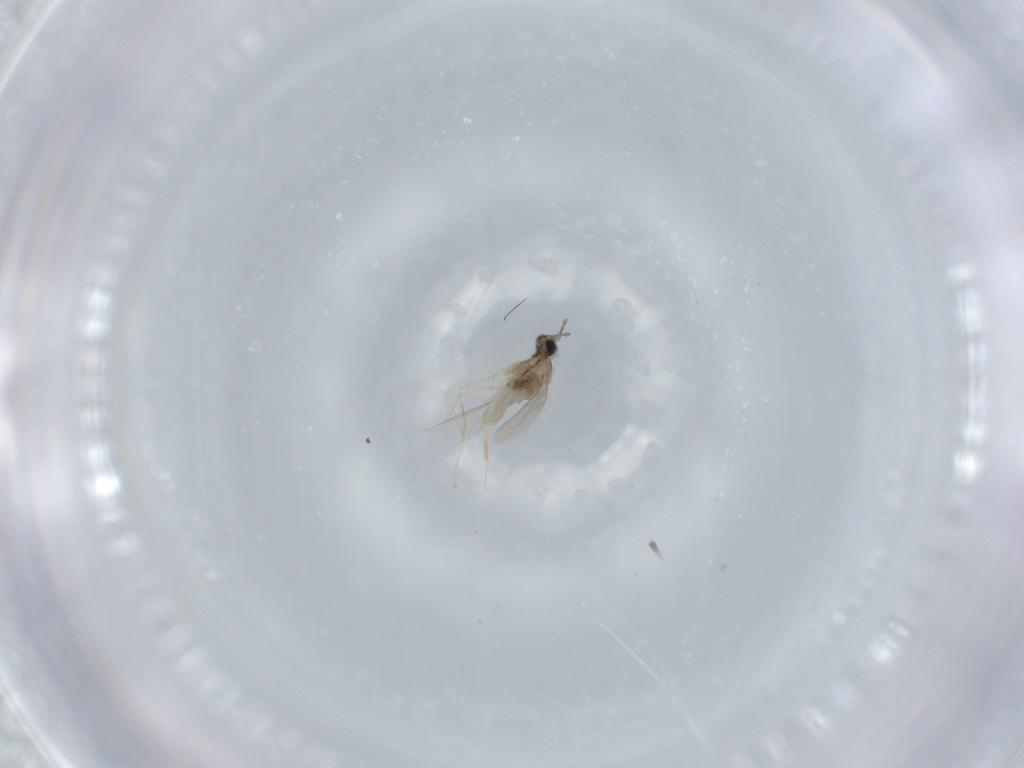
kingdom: Animalia
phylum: Arthropoda
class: Insecta
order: Diptera
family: Cecidomyiidae
